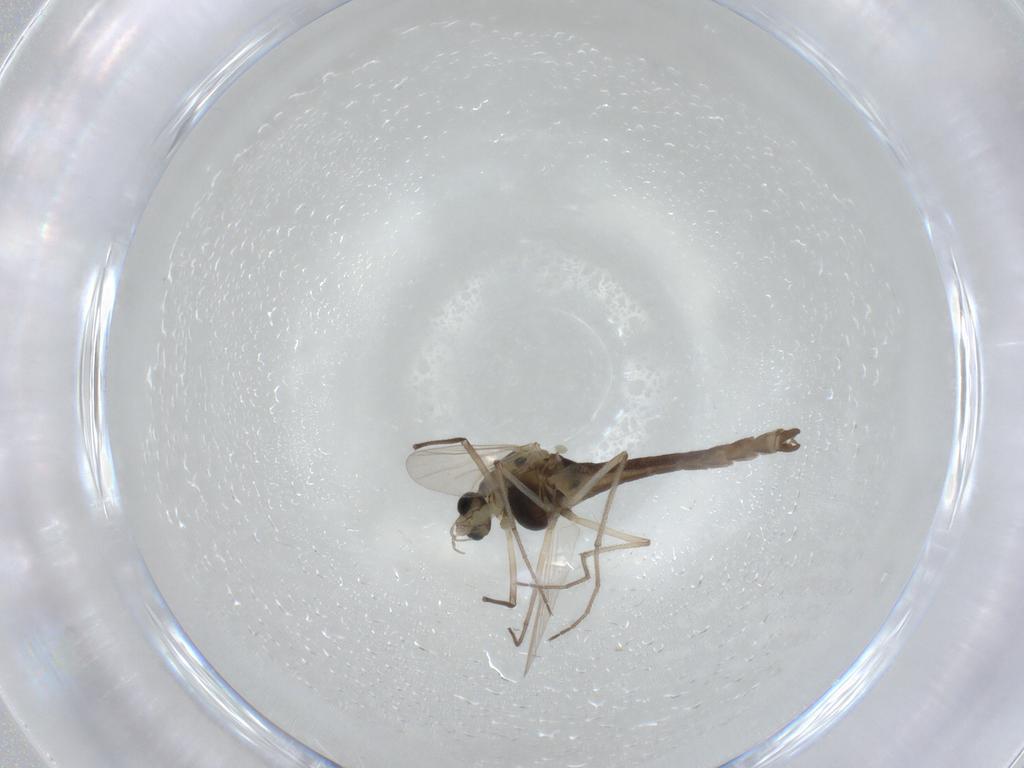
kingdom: Animalia
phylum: Arthropoda
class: Insecta
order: Diptera
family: Chironomidae
